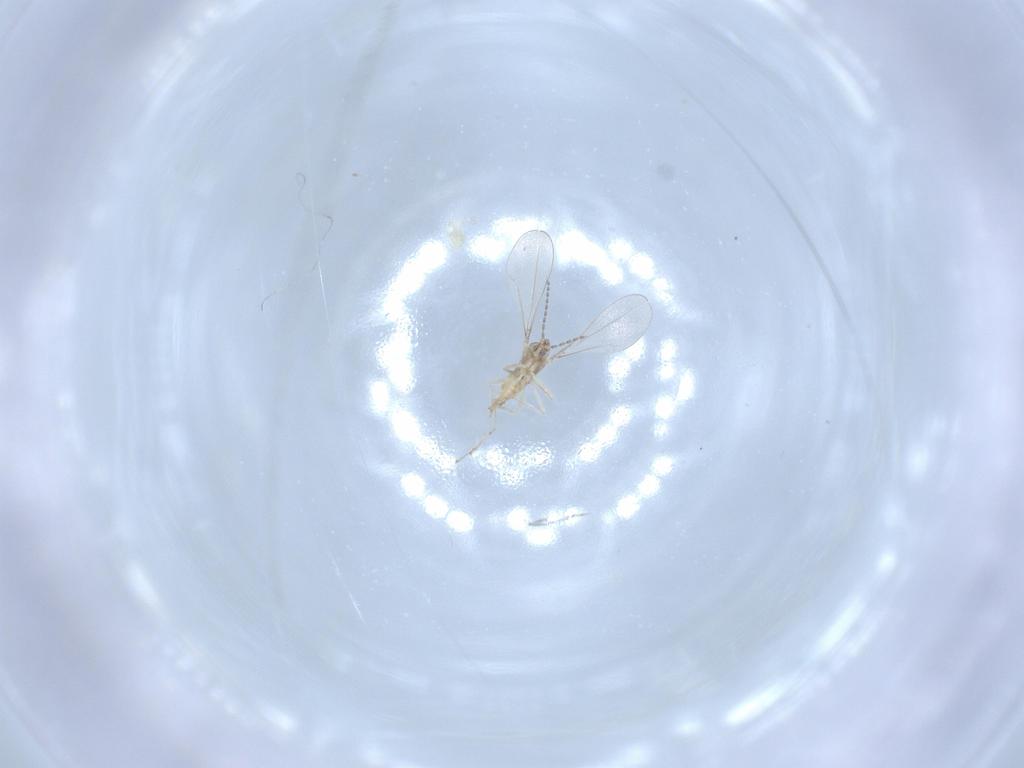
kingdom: Animalia
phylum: Arthropoda
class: Insecta
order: Diptera
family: Cecidomyiidae
